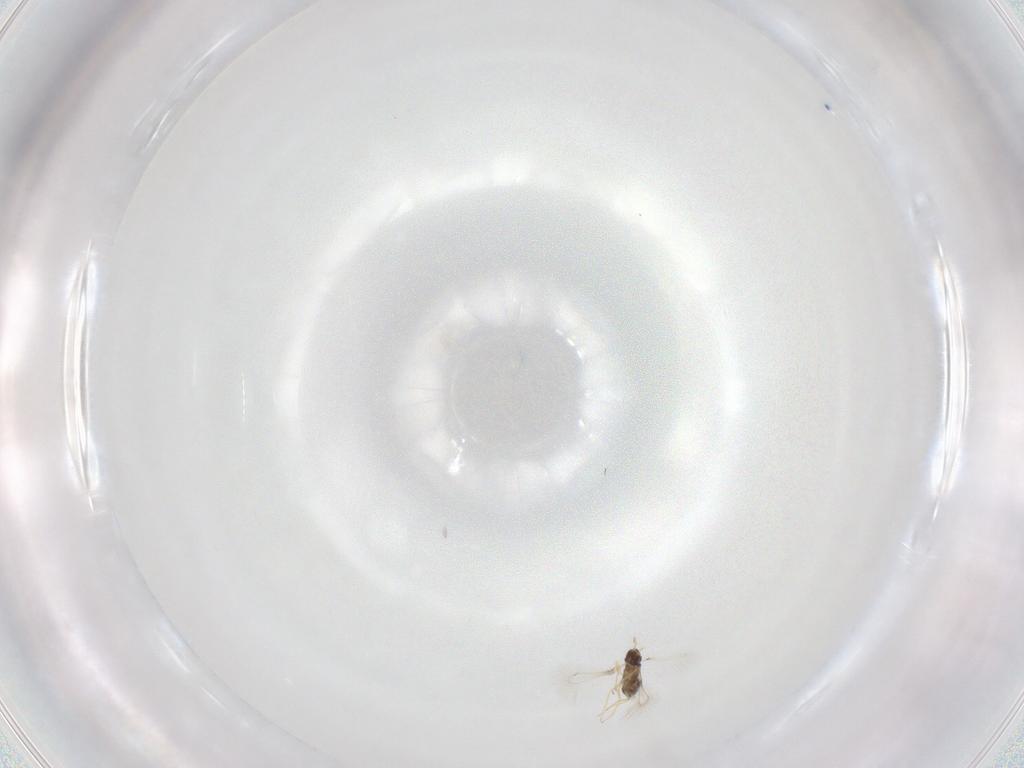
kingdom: Animalia
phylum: Arthropoda
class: Insecta
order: Hymenoptera
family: Mymaridae
